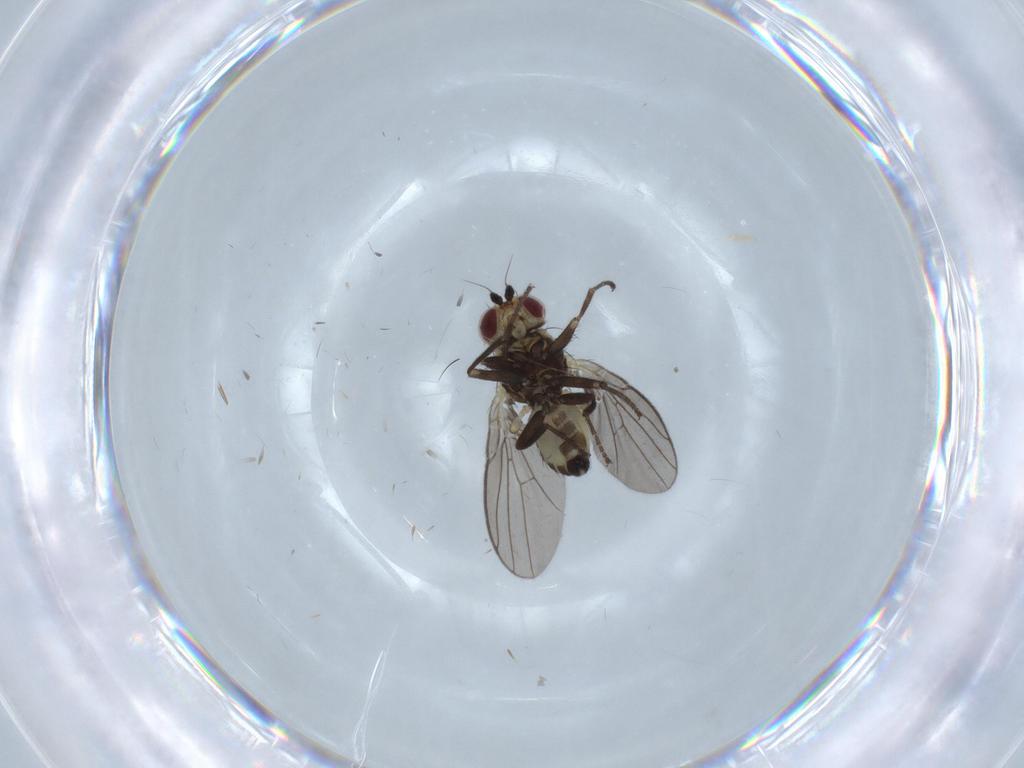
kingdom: Animalia
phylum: Arthropoda
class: Insecta
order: Diptera
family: Agromyzidae
